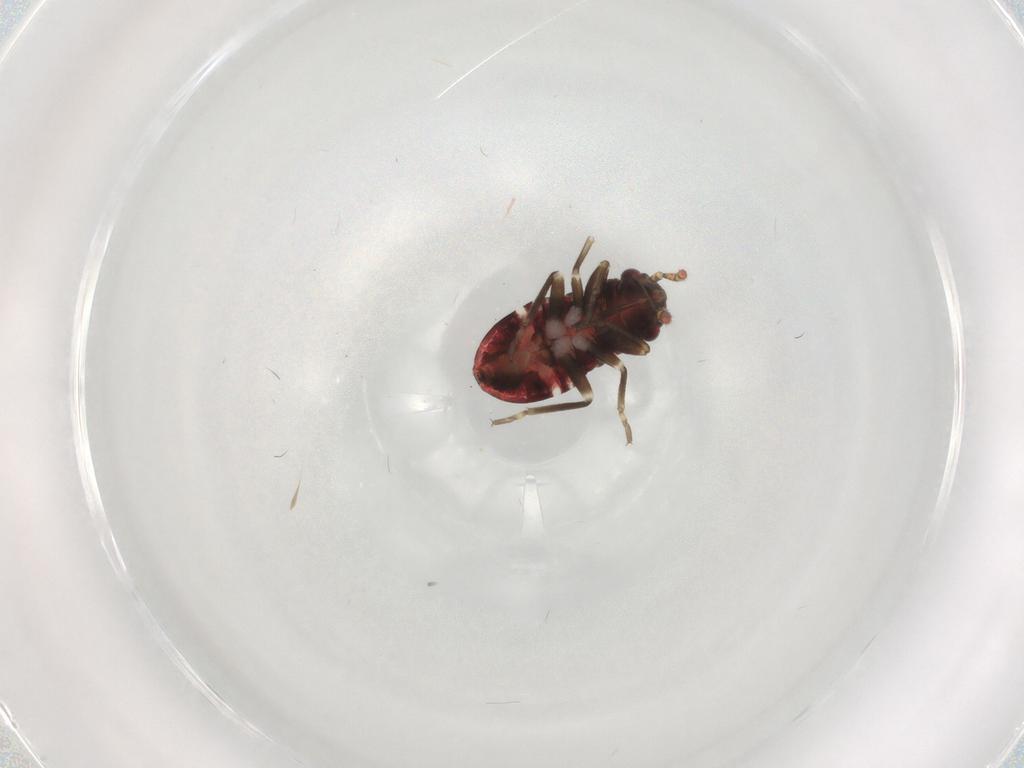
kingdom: Animalia
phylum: Arthropoda
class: Insecta
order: Hemiptera
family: Rhyparochromidae
